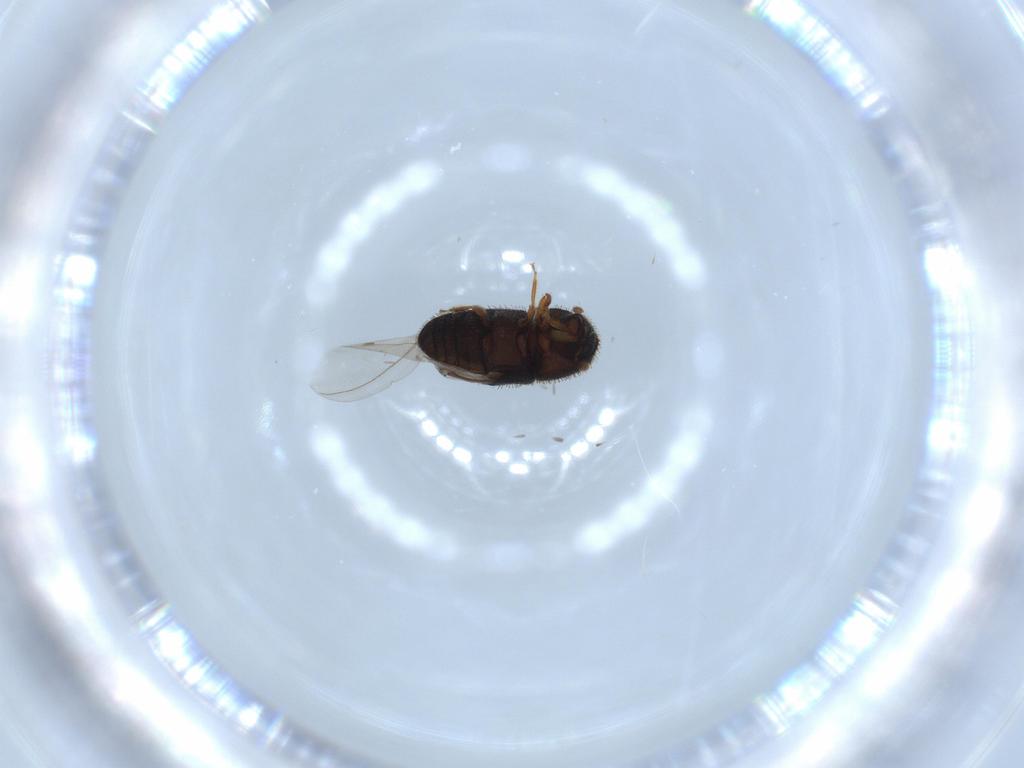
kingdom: Animalia
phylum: Arthropoda
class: Insecta
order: Coleoptera
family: Curculionidae
